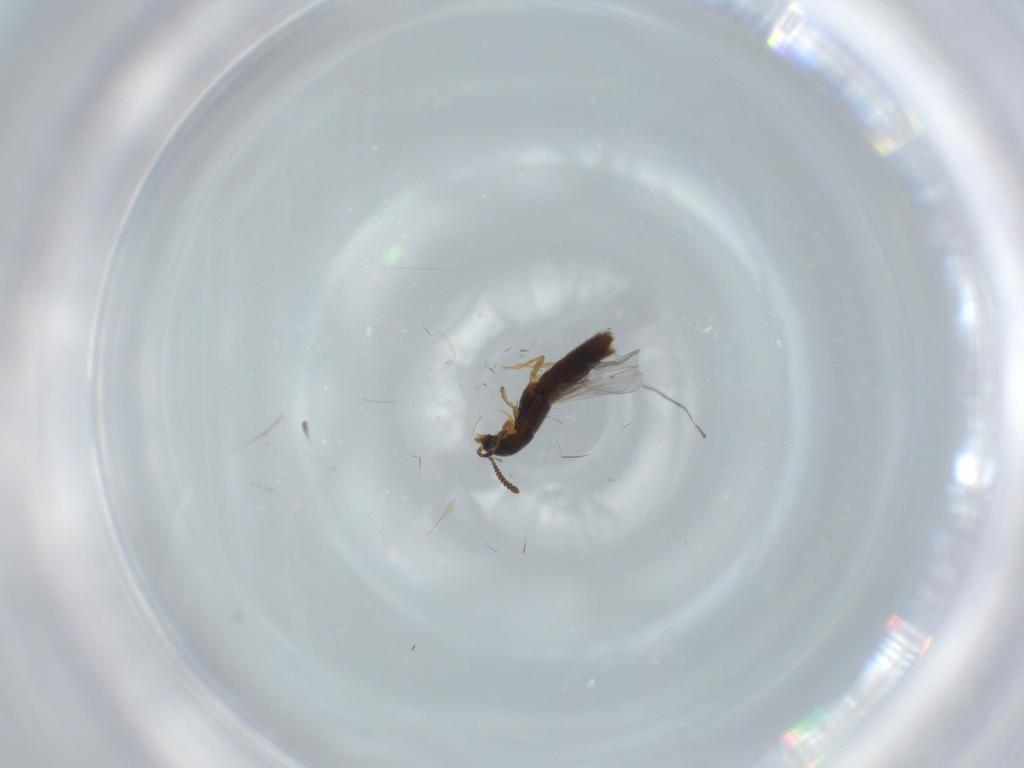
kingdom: Animalia
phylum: Arthropoda
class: Insecta
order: Coleoptera
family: Staphylinidae
